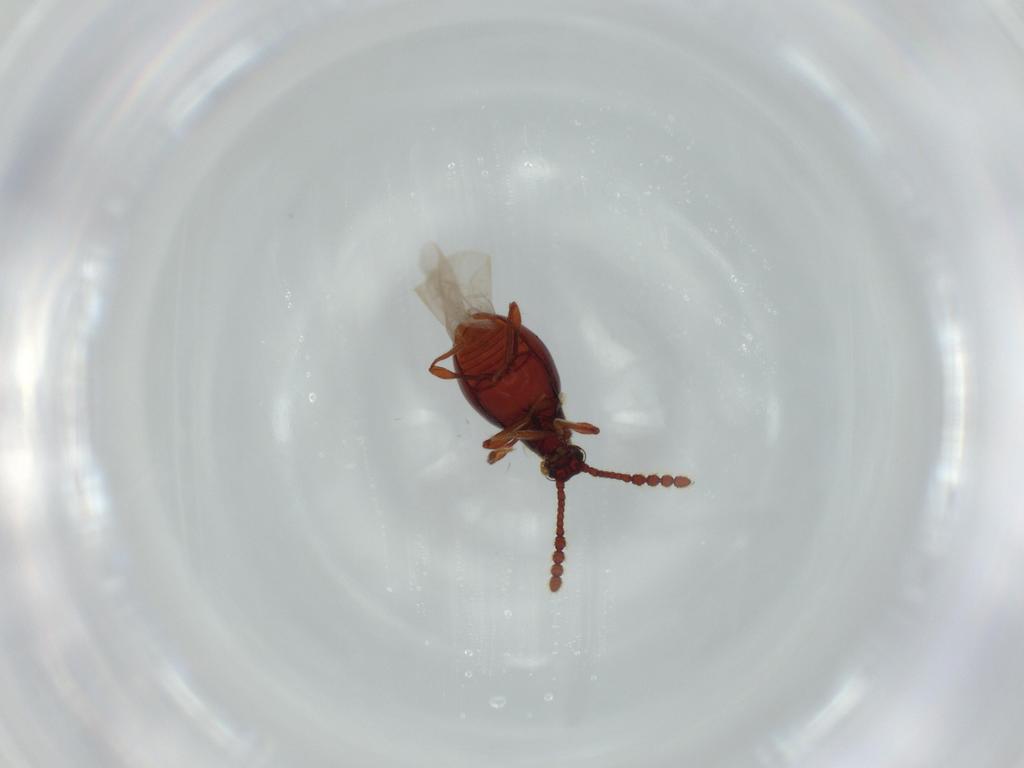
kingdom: Animalia
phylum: Arthropoda
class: Insecta
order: Coleoptera
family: Staphylinidae
